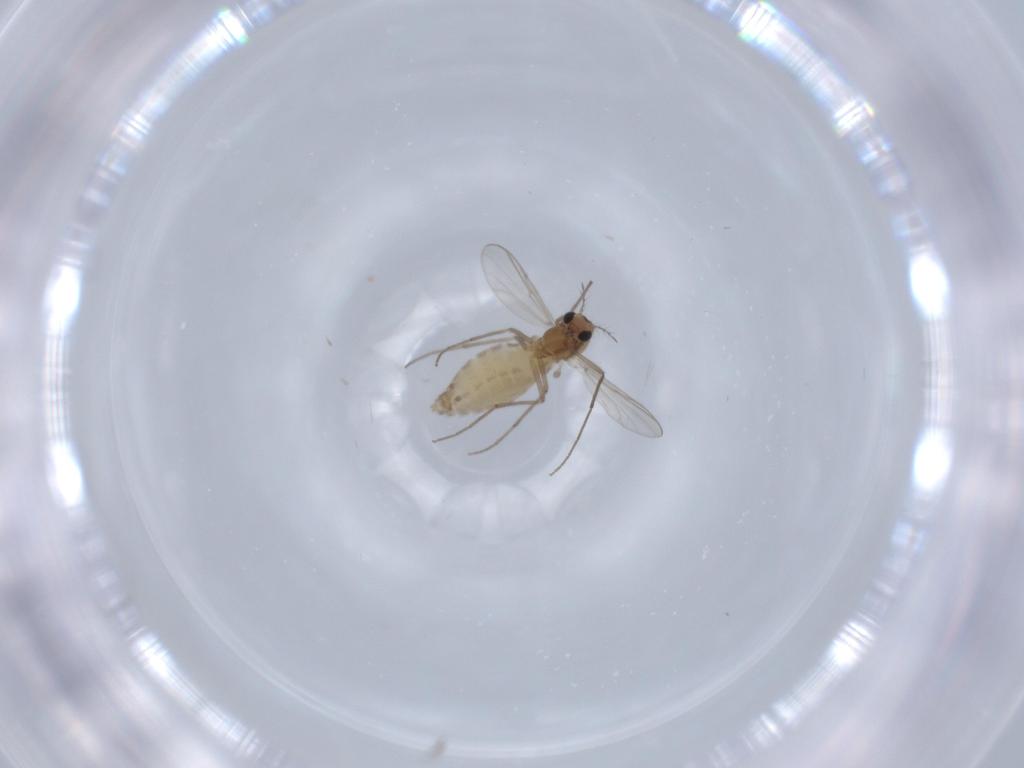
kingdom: Animalia
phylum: Arthropoda
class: Insecta
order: Diptera
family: Chironomidae
